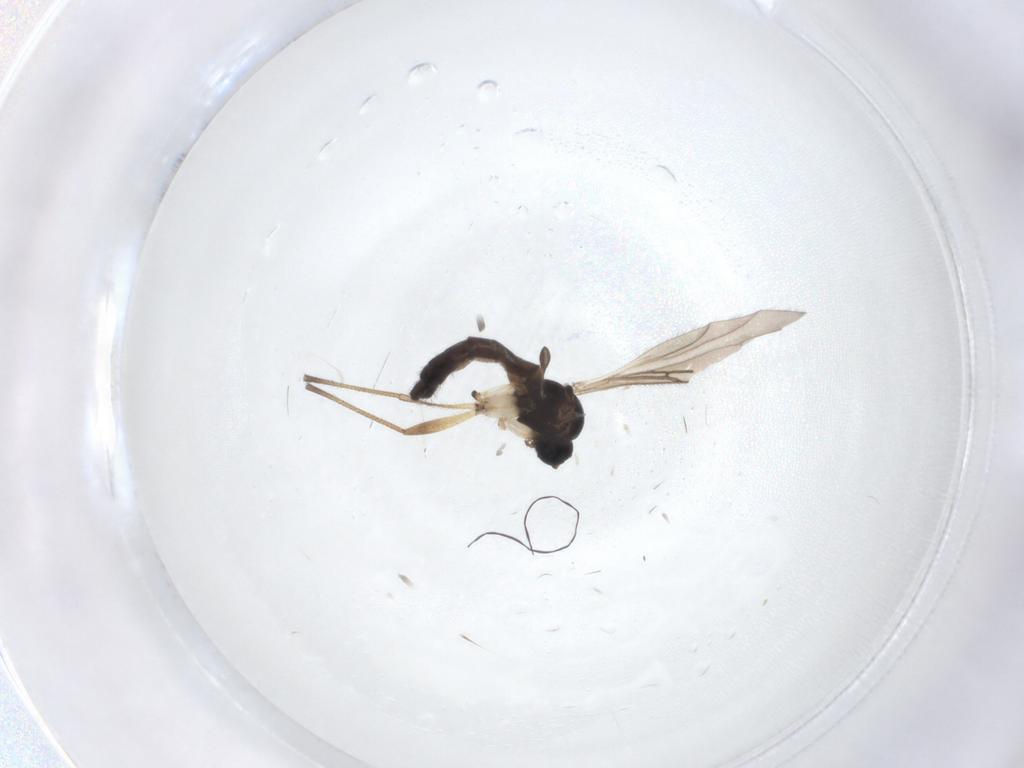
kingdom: Animalia
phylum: Arthropoda
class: Insecta
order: Diptera
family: Sciaridae
